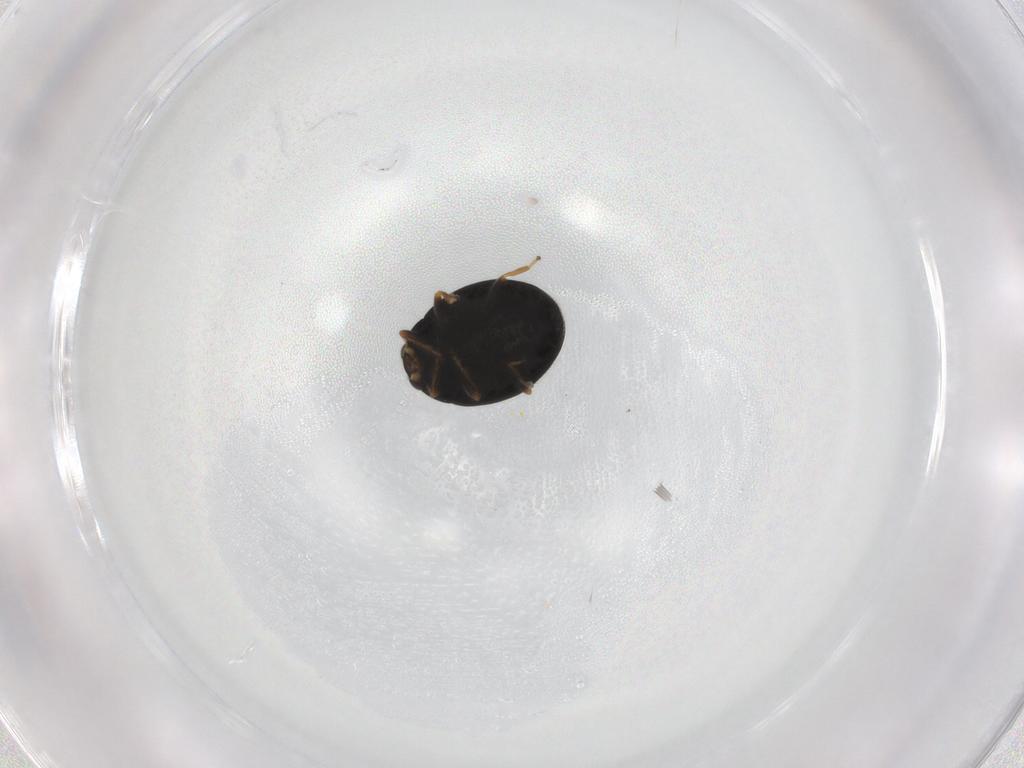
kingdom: Animalia
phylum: Arthropoda
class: Insecta
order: Coleoptera
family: Coccinellidae
